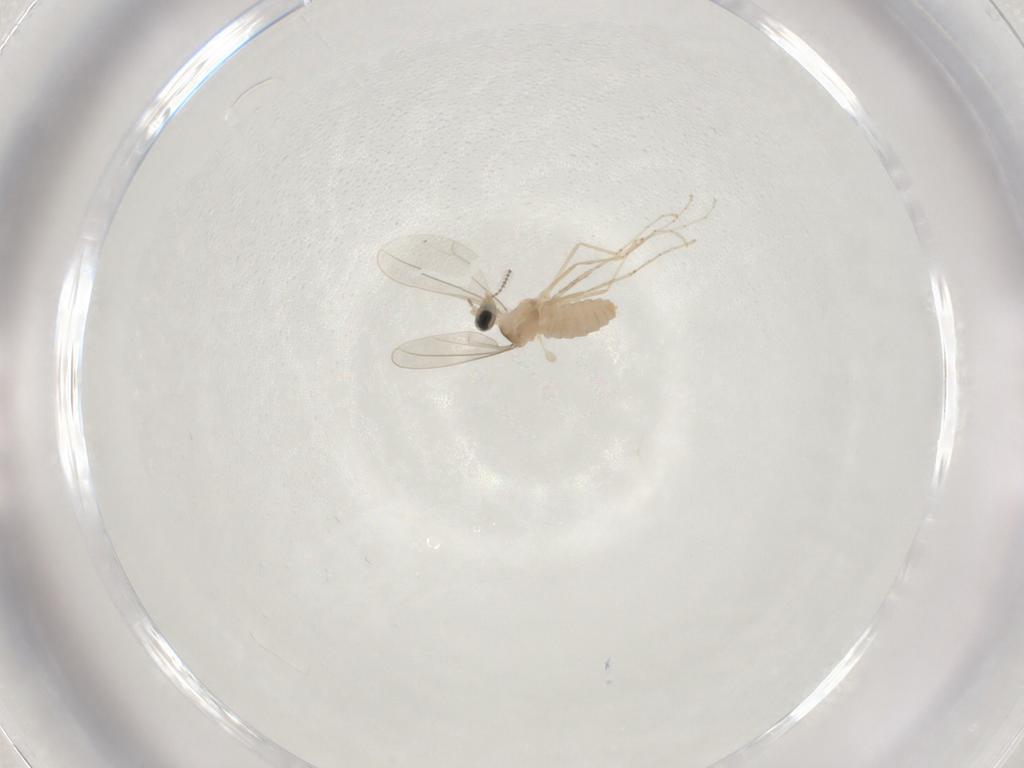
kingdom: Animalia
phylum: Arthropoda
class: Insecta
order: Diptera
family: Cecidomyiidae
